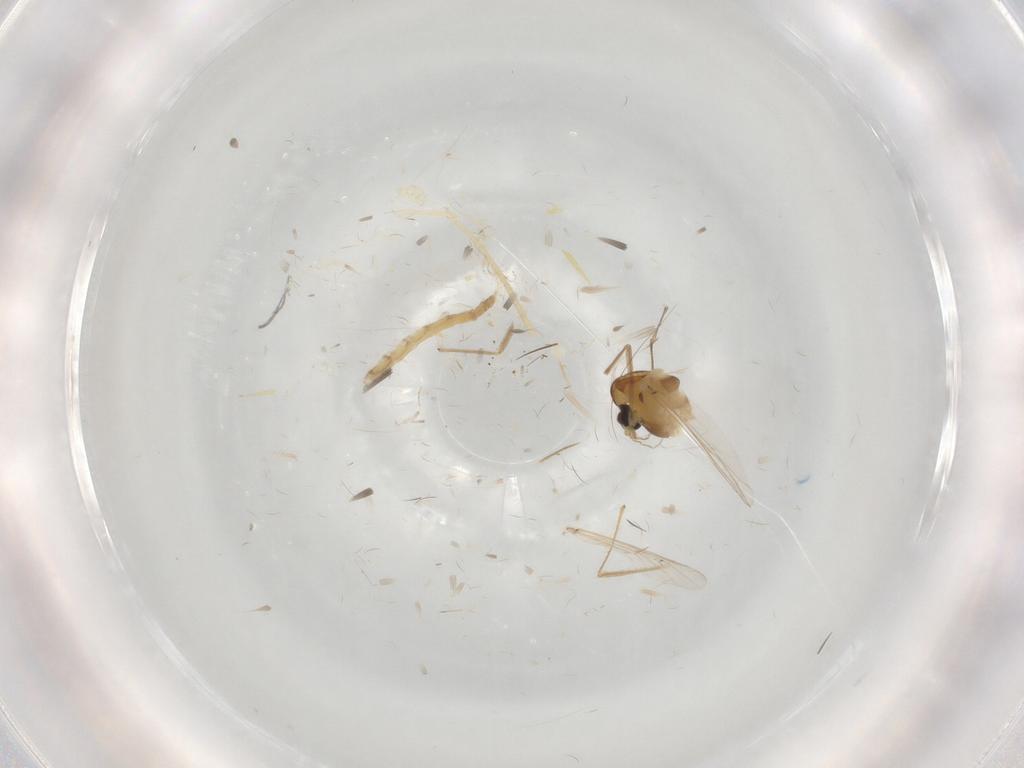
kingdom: Animalia
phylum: Arthropoda
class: Insecta
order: Diptera
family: Chironomidae
